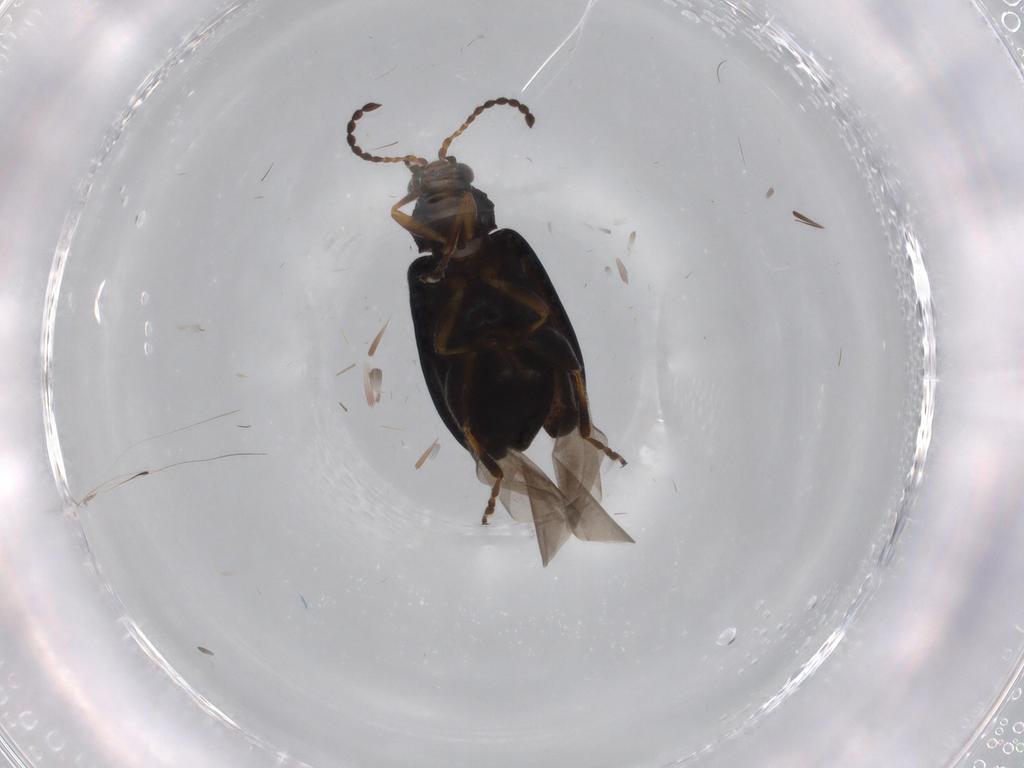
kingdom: Animalia
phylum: Arthropoda
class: Insecta
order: Coleoptera
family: Chrysomelidae
